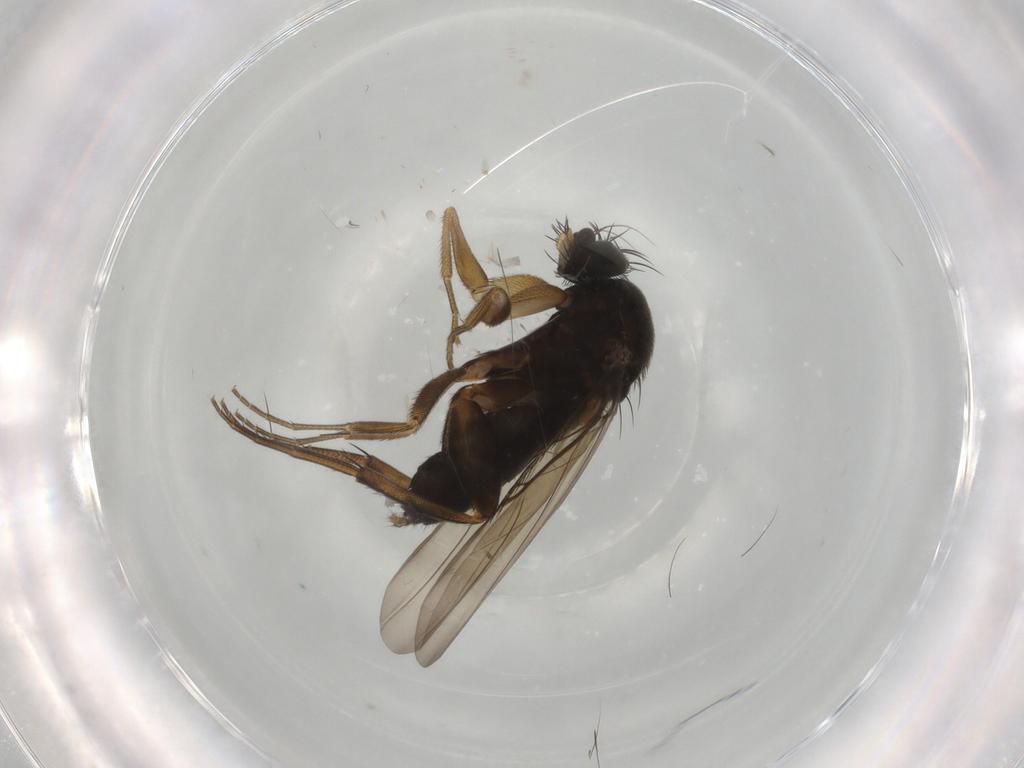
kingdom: Animalia
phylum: Arthropoda
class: Insecta
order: Diptera
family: Phoridae
